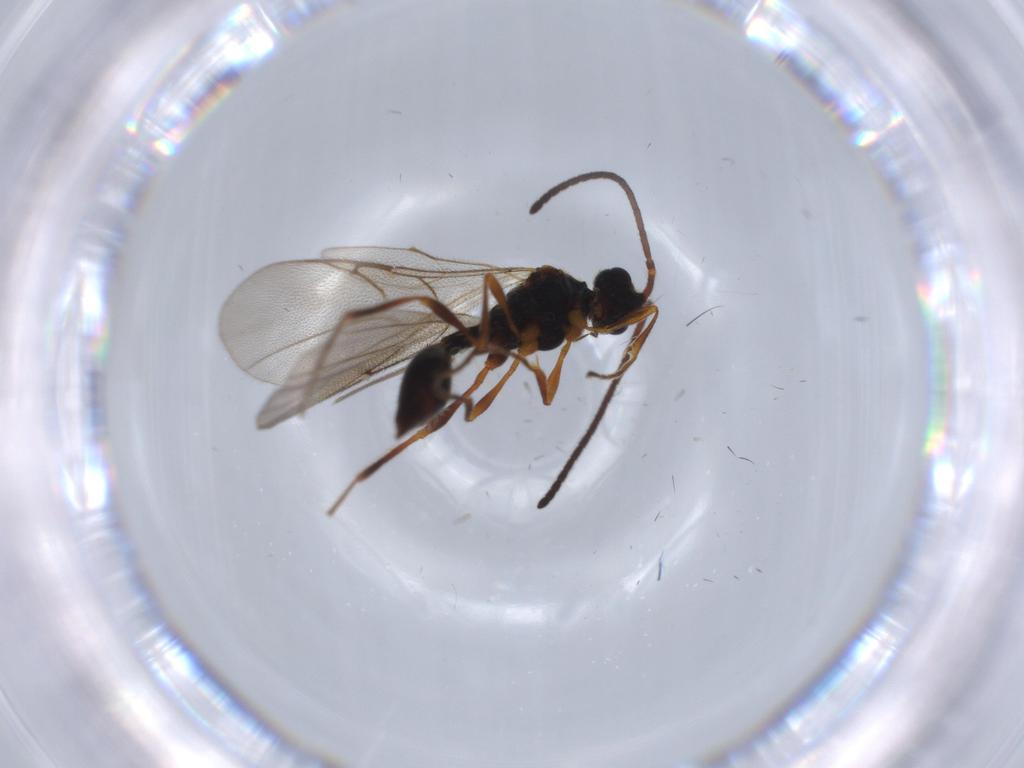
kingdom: Animalia
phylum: Arthropoda
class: Insecta
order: Hymenoptera
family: Diapriidae
